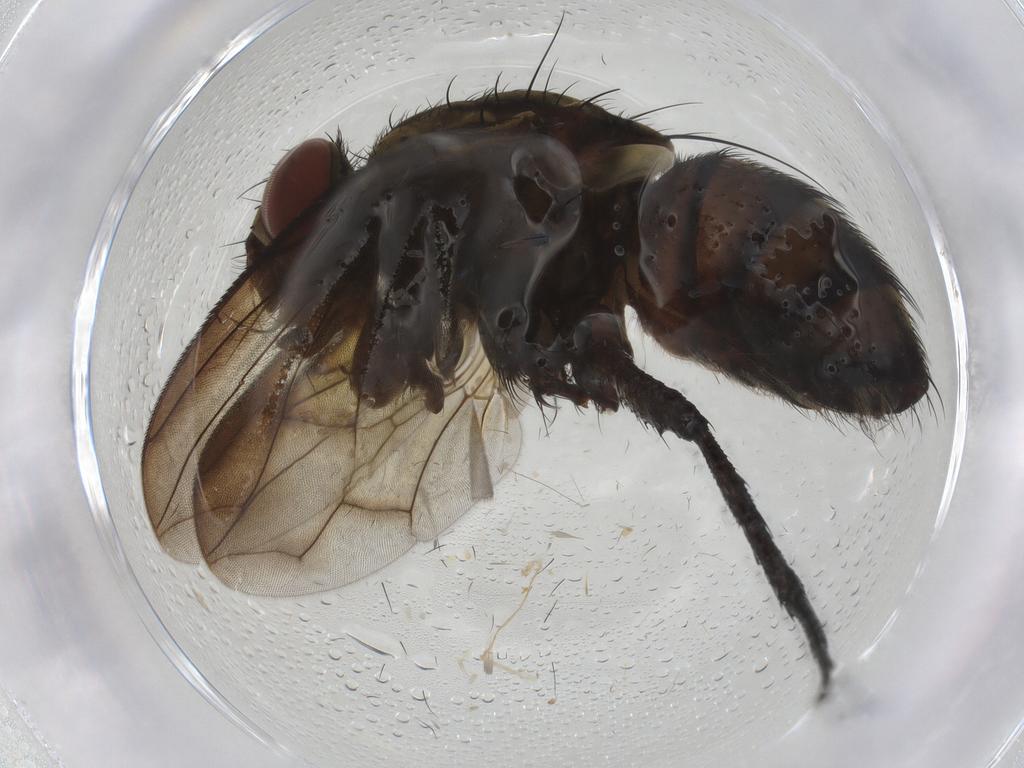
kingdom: Animalia
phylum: Arthropoda
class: Insecta
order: Diptera
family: Sarcophagidae
